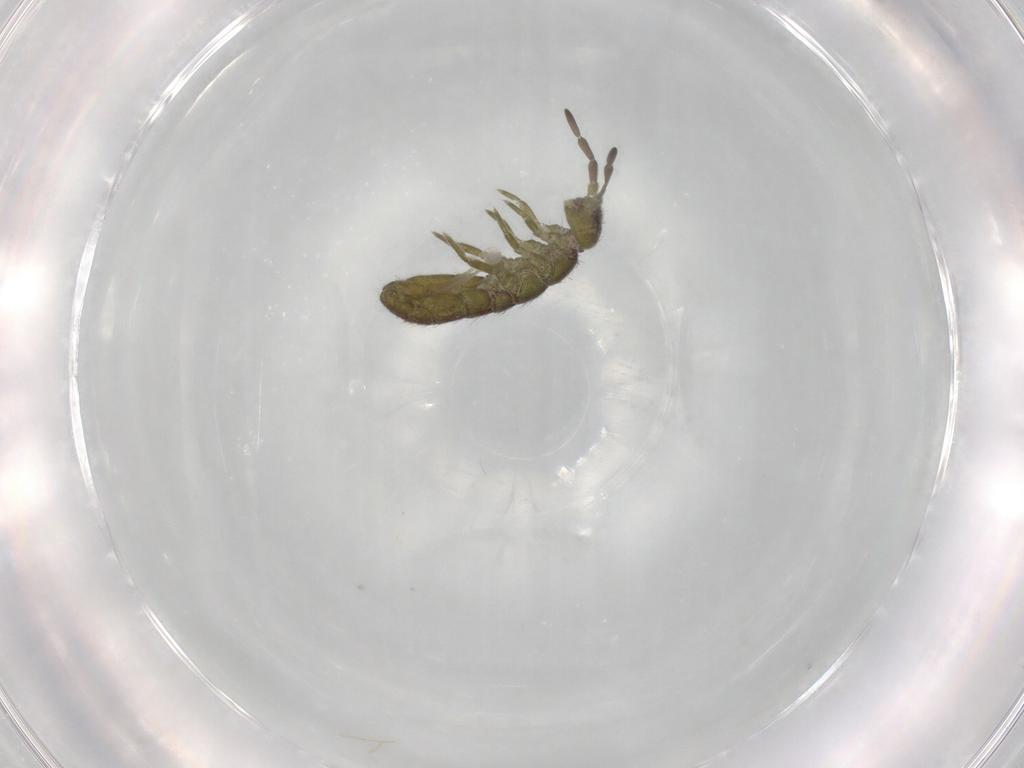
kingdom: Animalia
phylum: Arthropoda
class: Collembola
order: Entomobryomorpha
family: Isotomidae
